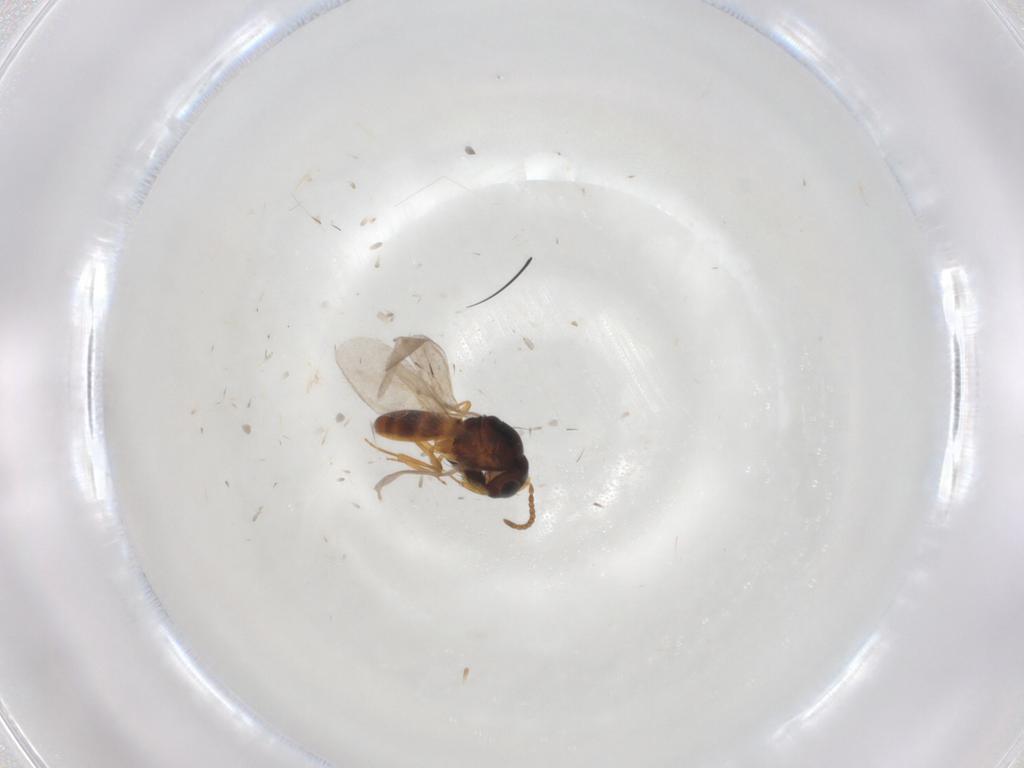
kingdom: Animalia
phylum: Arthropoda
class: Insecta
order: Hymenoptera
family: Scelionidae
